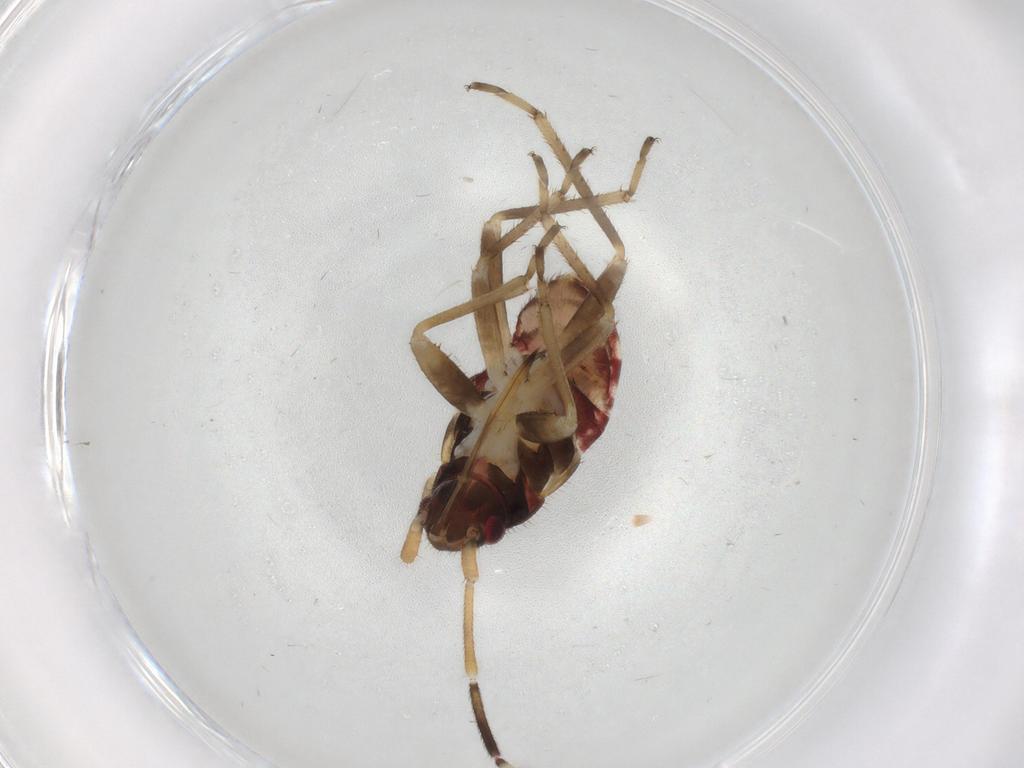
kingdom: Animalia
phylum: Arthropoda
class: Insecta
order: Hemiptera
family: Rhyparochromidae
